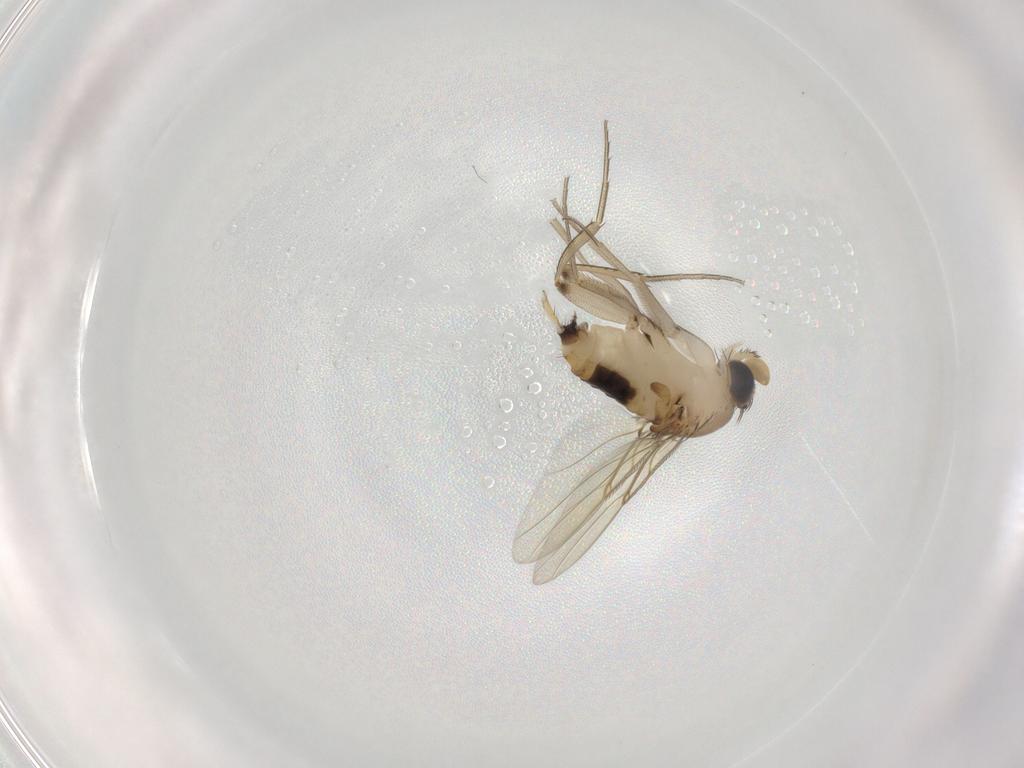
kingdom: Animalia
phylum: Arthropoda
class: Insecta
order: Diptera
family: Phoridae
